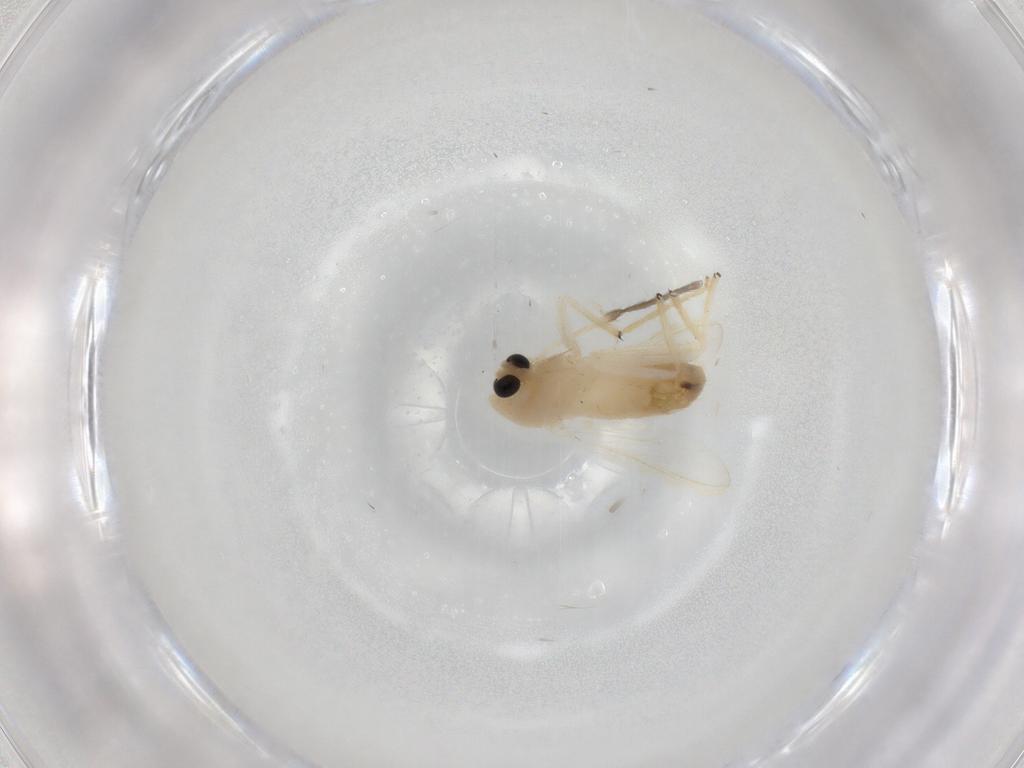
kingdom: Animalia
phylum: Arthropoda
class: Insecta
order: Diptera
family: Chironomidae
